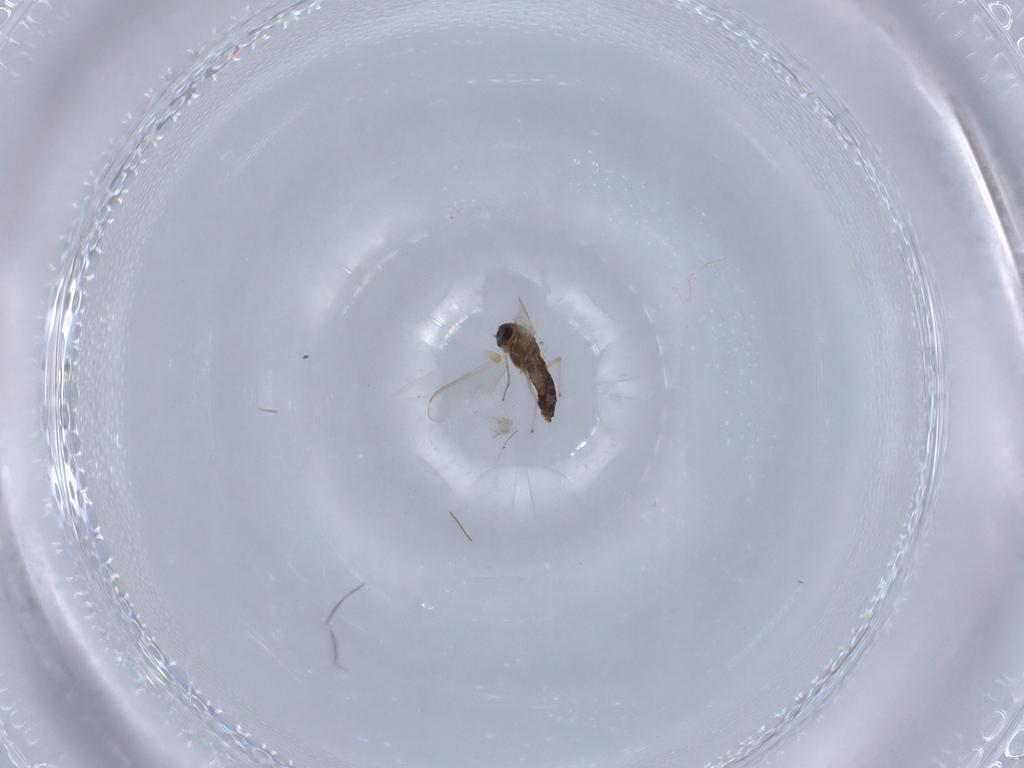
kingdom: Animalia
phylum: Arthropoda
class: Insecta
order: Diptera
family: Chironomidae
